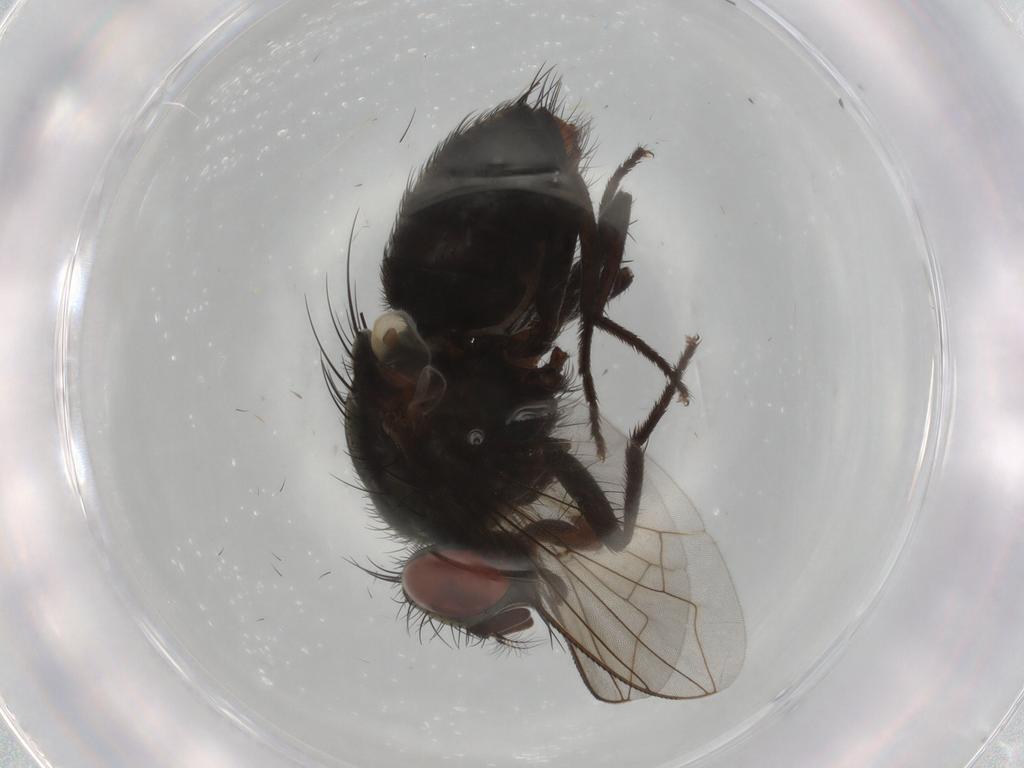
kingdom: Animalia
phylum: Arthropoda
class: Insecta
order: Diptera
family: Sarcophagidae
